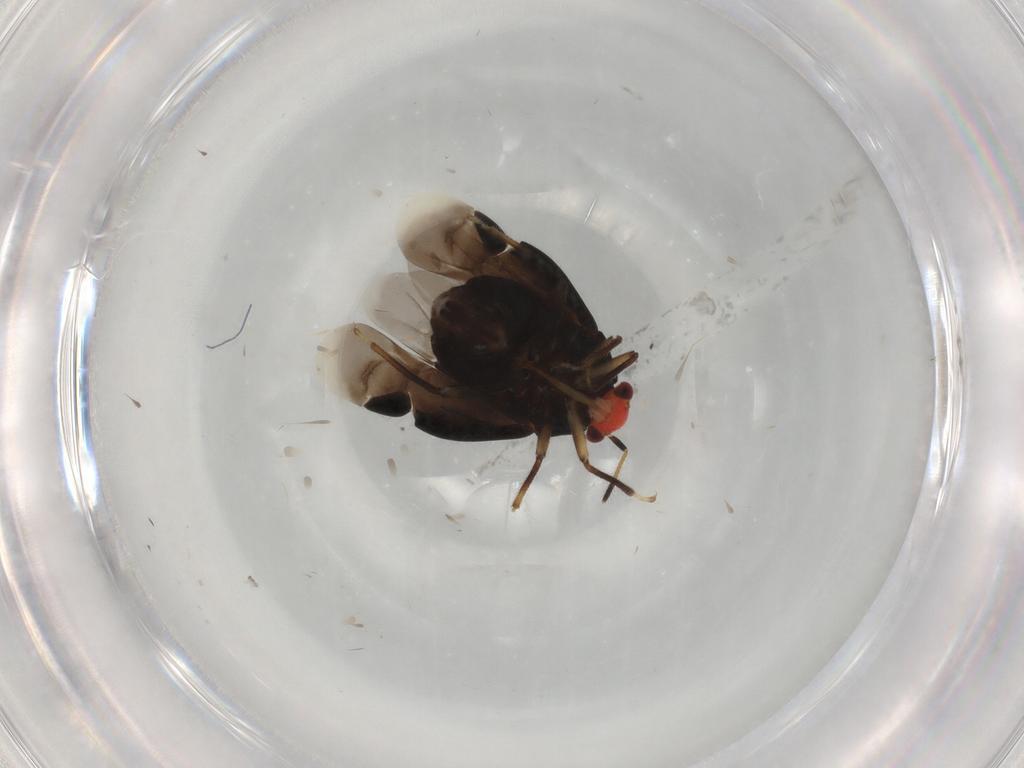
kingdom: Animalia
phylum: Arthropoda
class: Insecta
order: Hemiptera
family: Miridae
